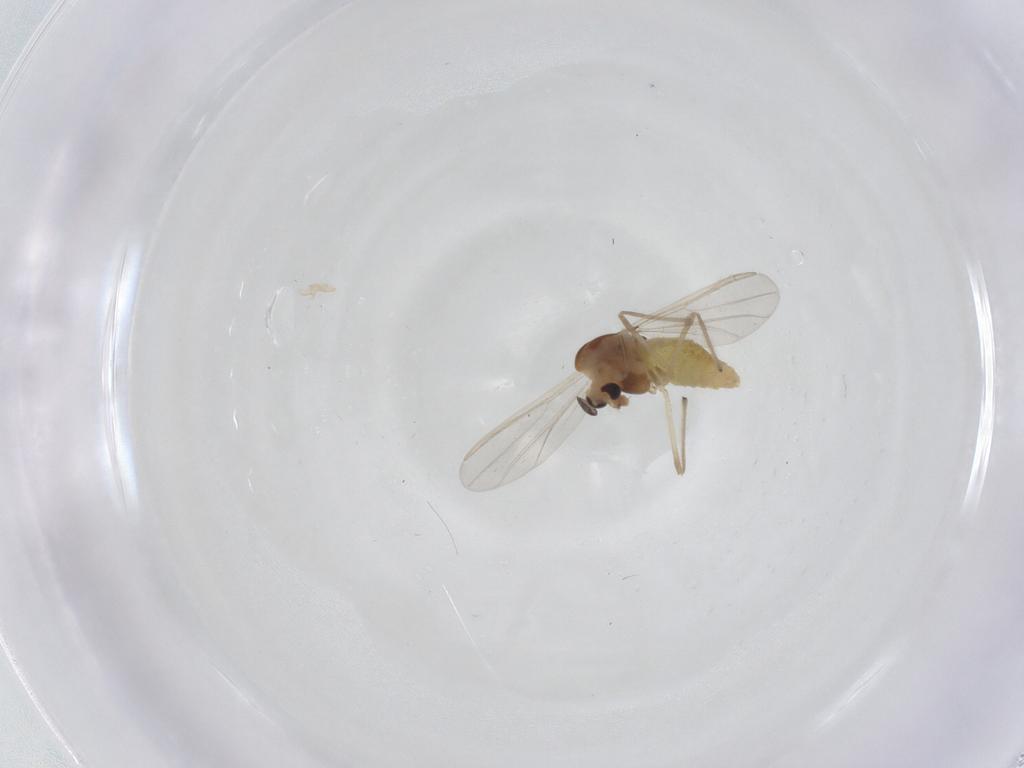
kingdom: Animalia
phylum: Arthropoda
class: Insecta
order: Diptera
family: Chironomidae
